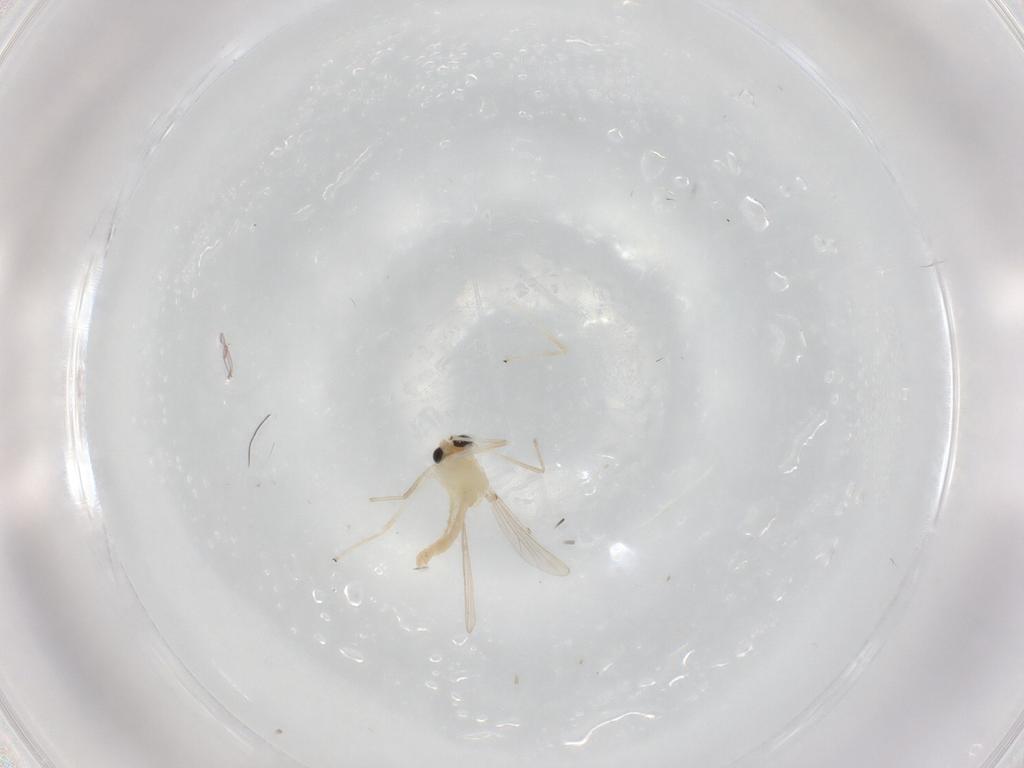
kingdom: Animalia
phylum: Arthropoda
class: Insecta
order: Diptera
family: Chironomidae
